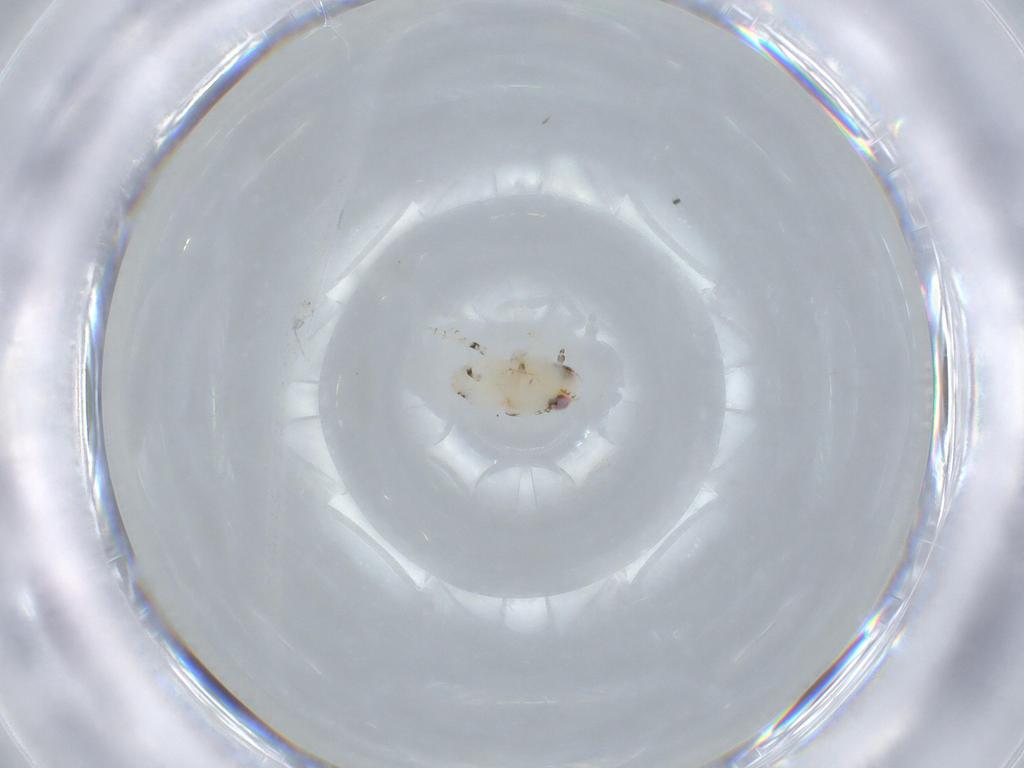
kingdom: Animalia
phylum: Arthropoda
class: Insecta
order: Hemiptera
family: Nogodinidae
